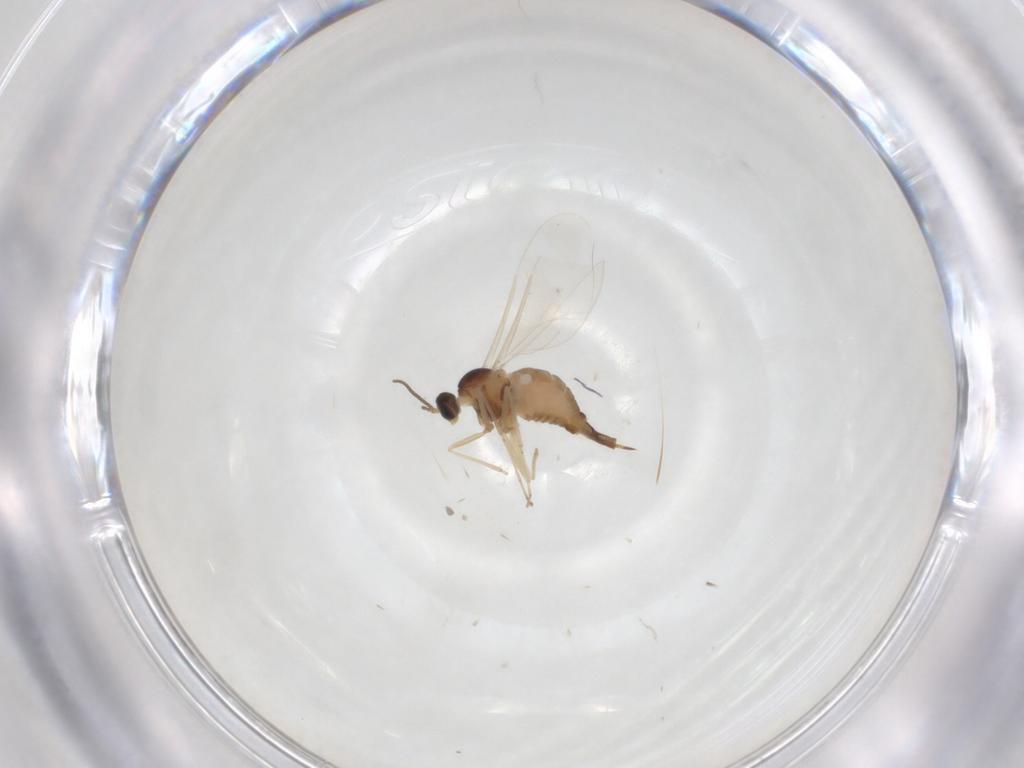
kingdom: Animalia
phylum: Arthropoda
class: Insecta
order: Diptera
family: Cecidomyiidae
